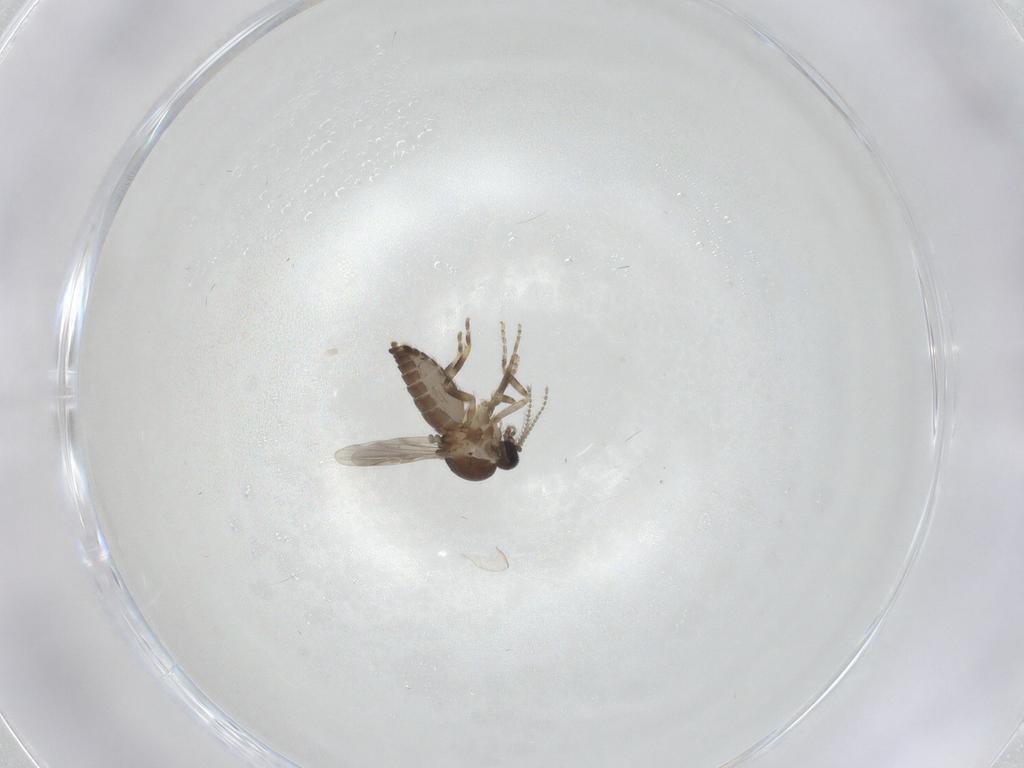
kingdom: Animalia
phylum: Arthropoda
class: Insecta
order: Diptera
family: Ceratopogonidae
